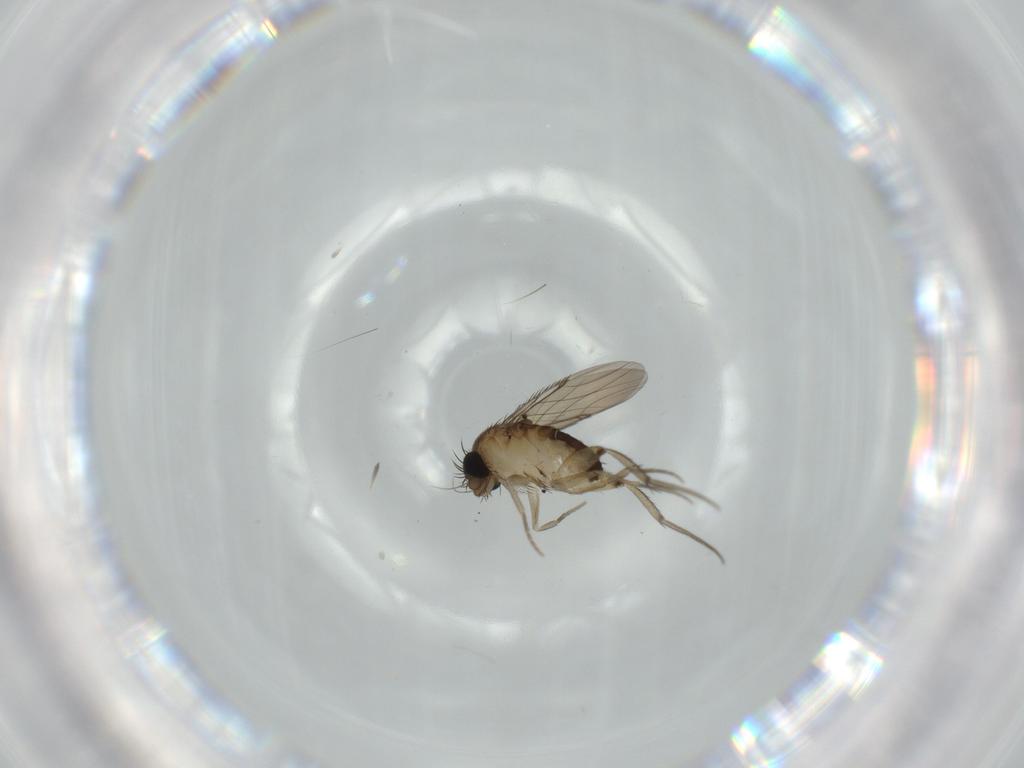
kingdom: Animalia
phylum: Arthropoda
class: Insecta
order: Diptera
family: Phoridae
